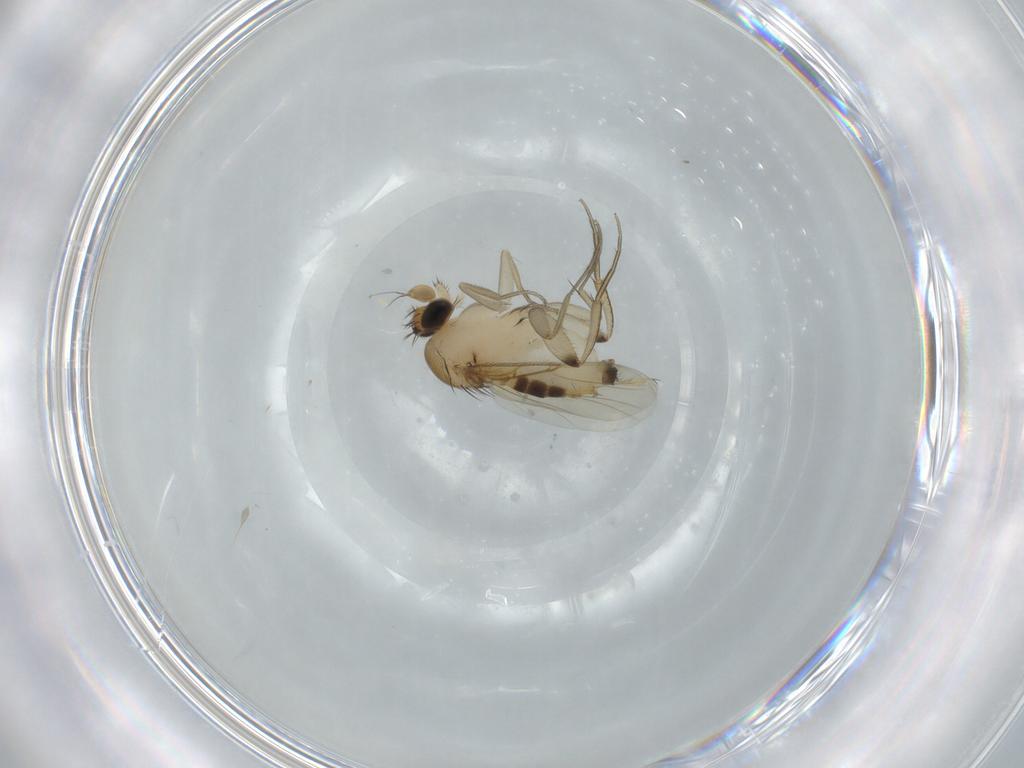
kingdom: Animalia
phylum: Arthropoda
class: Insecta
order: Diptera
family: Phoridae
